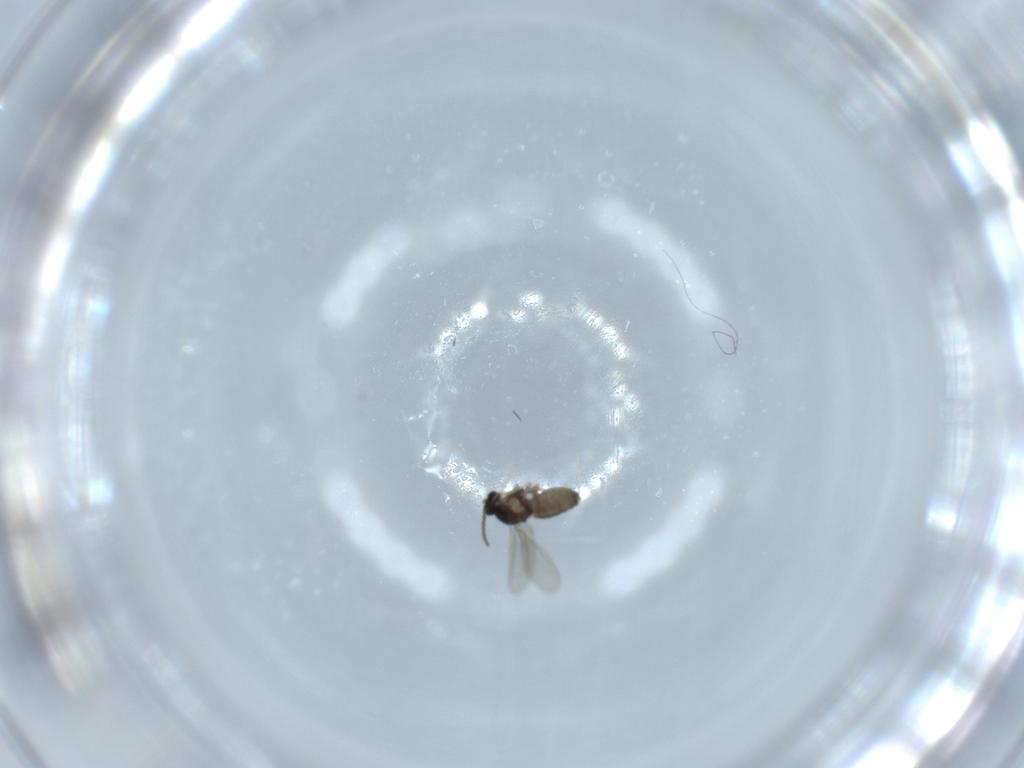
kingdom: Animalia
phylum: Arthropoda
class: Insecta
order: Diptera
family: Cecidomyiidae
